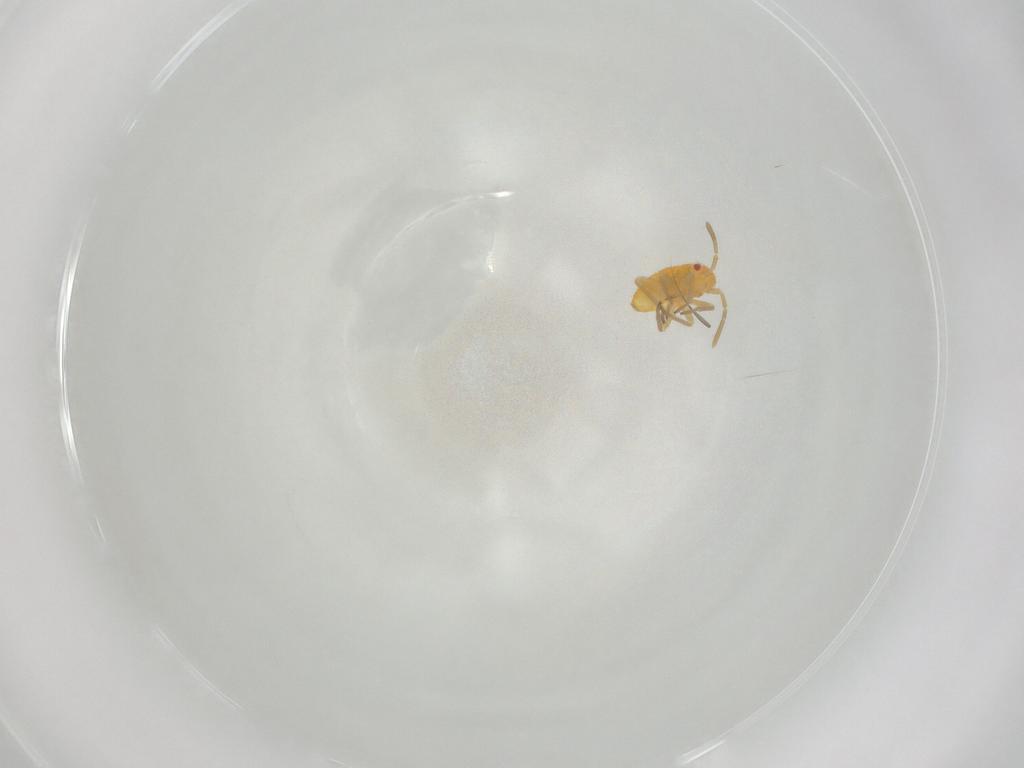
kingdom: Animalia
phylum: Arthropoda
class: Insecta
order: Hemiptera
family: Miridae
